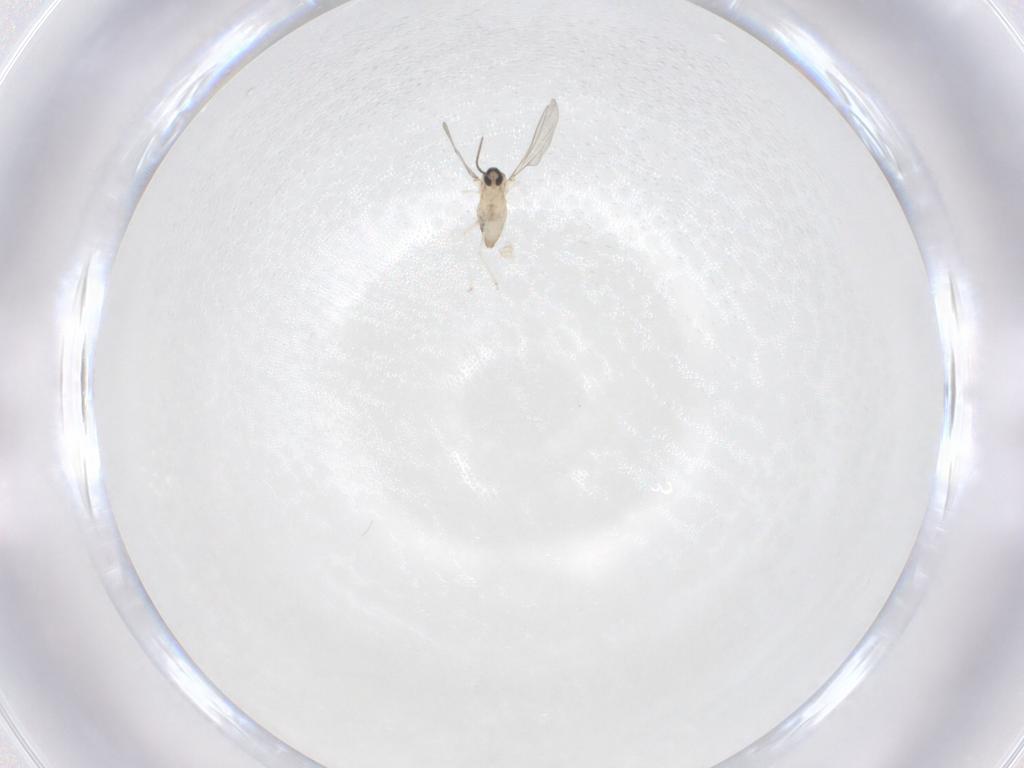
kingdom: Animalia
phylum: Arthropoda
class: Insecta
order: Diptera
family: Cecidomyiidae
